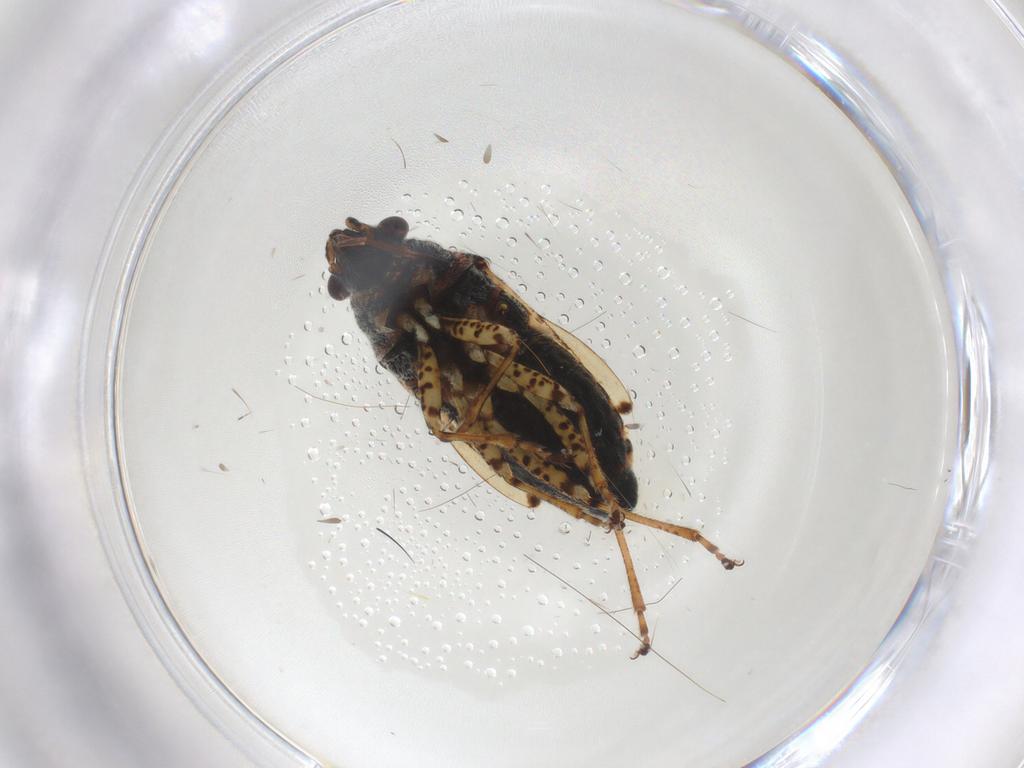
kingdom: Animalia
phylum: Arthropoda
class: Insecta
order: Hemiptera
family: Lygaeidae
